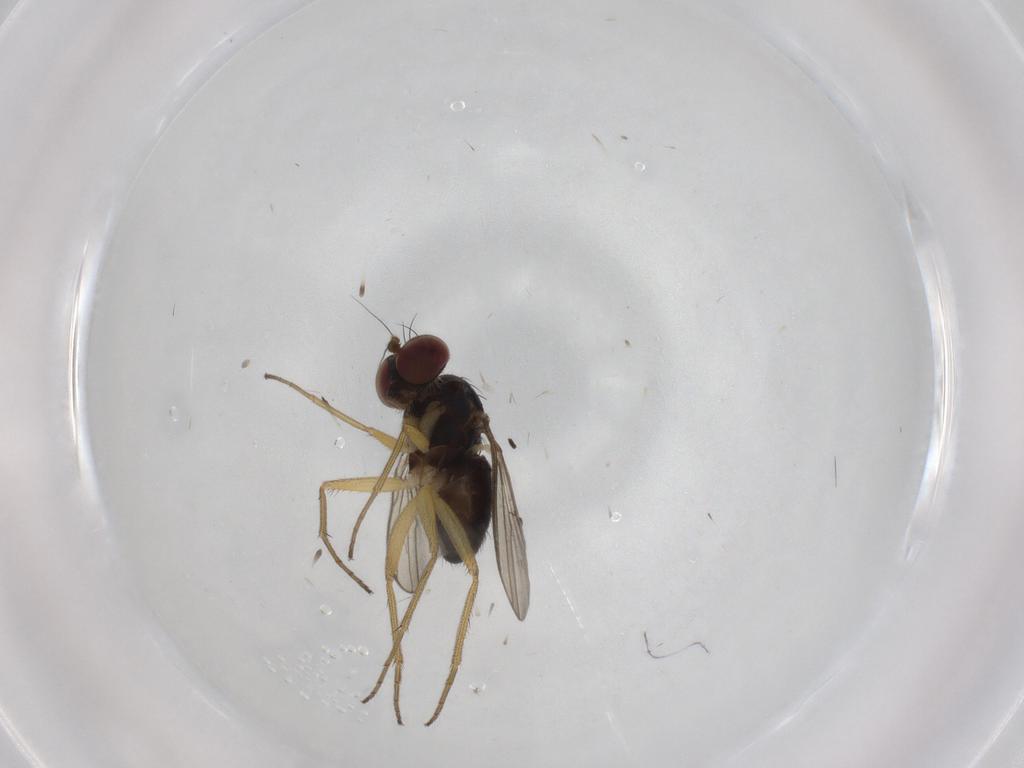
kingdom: Animalia
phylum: Arthropoda
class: Insecta
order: Diptera
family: Dolichopodidae
